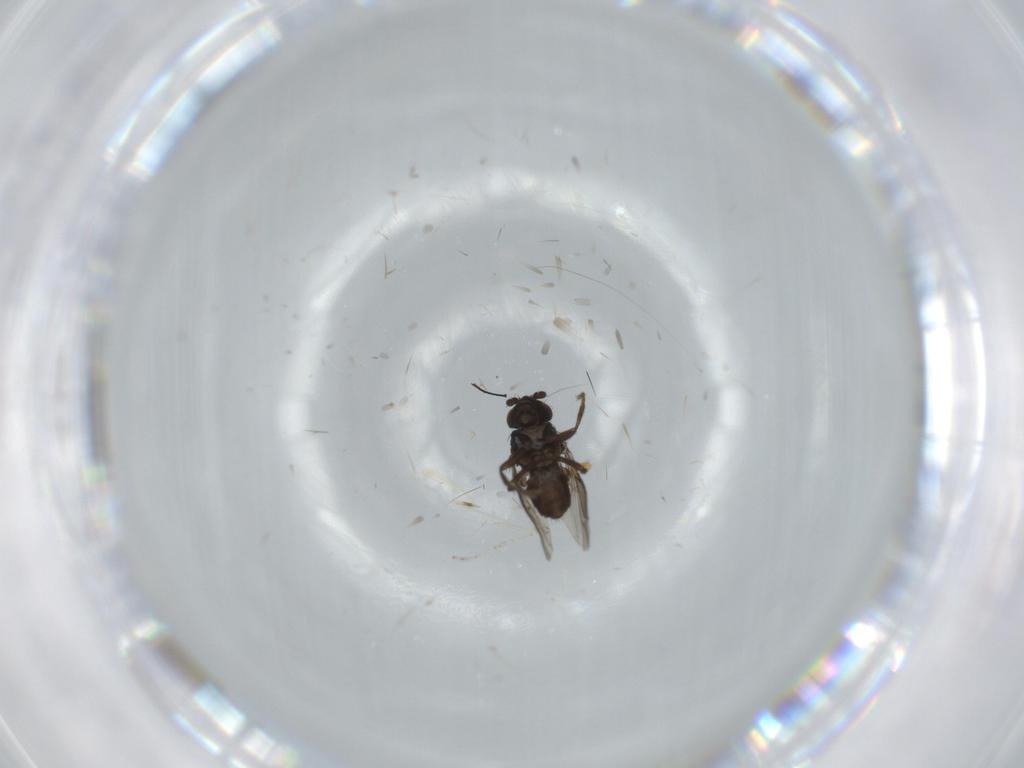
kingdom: Animalia
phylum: Arthropoda
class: Insecta
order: Diptera
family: Sphaeroceridae
